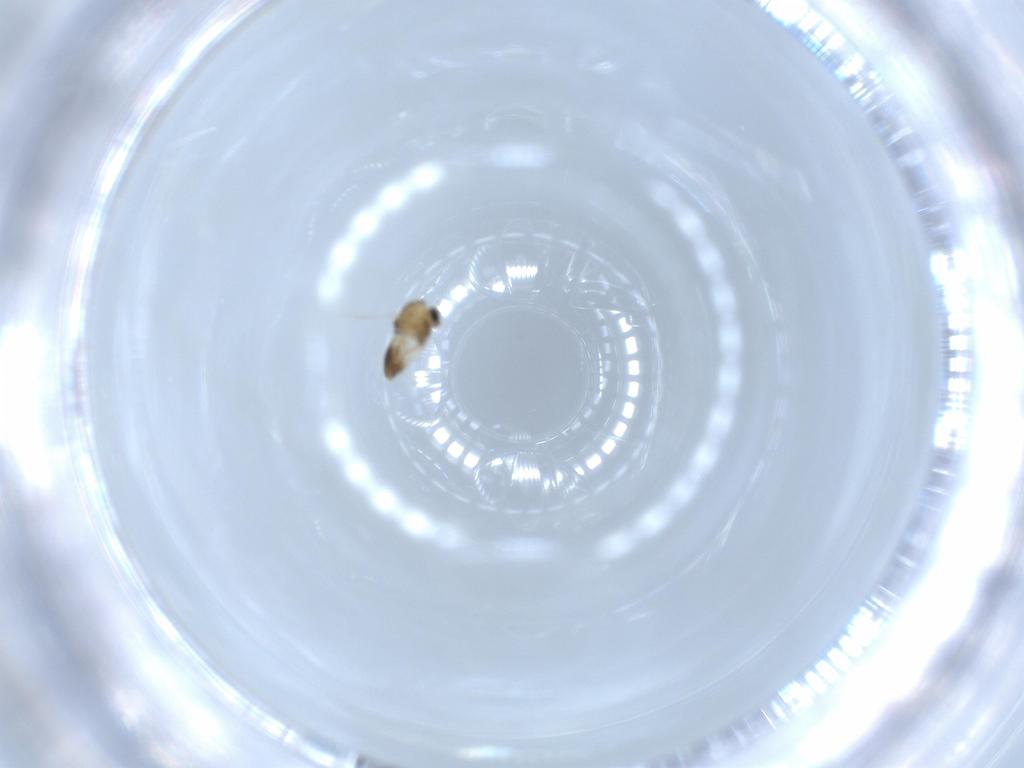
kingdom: Animalia
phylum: Arthropoda
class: Insecta
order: Diptera
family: Chironomidae
